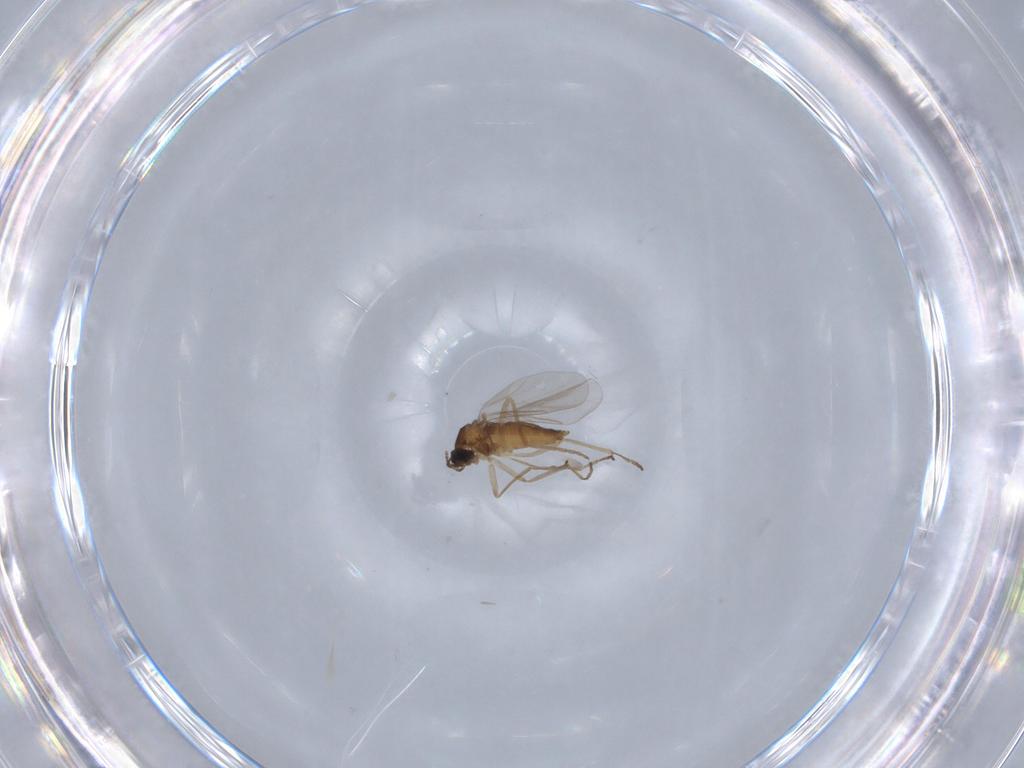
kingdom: Animalia
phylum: Arthropoda
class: Insecta
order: Diptera
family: Cecidomyiidae
